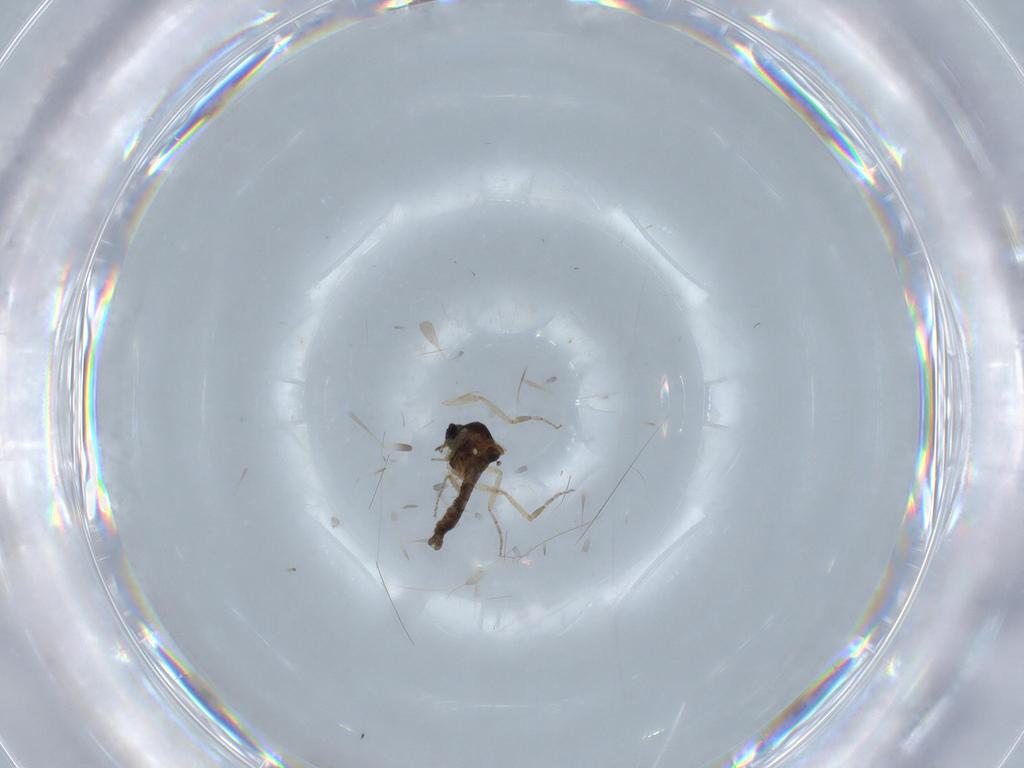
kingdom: Animalia
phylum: Arthropoda
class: Insecta
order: Diptera
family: Ceratopogonidae
